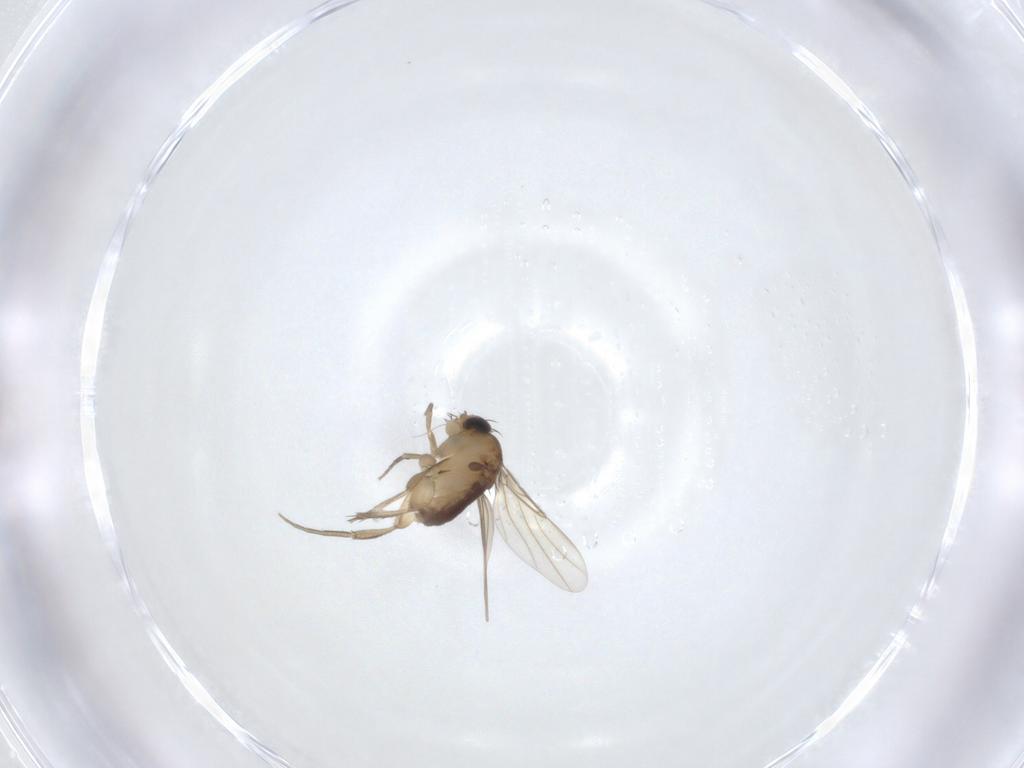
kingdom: Animalia
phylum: Arthropoda
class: Insecta
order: Diptera
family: Phoridae
